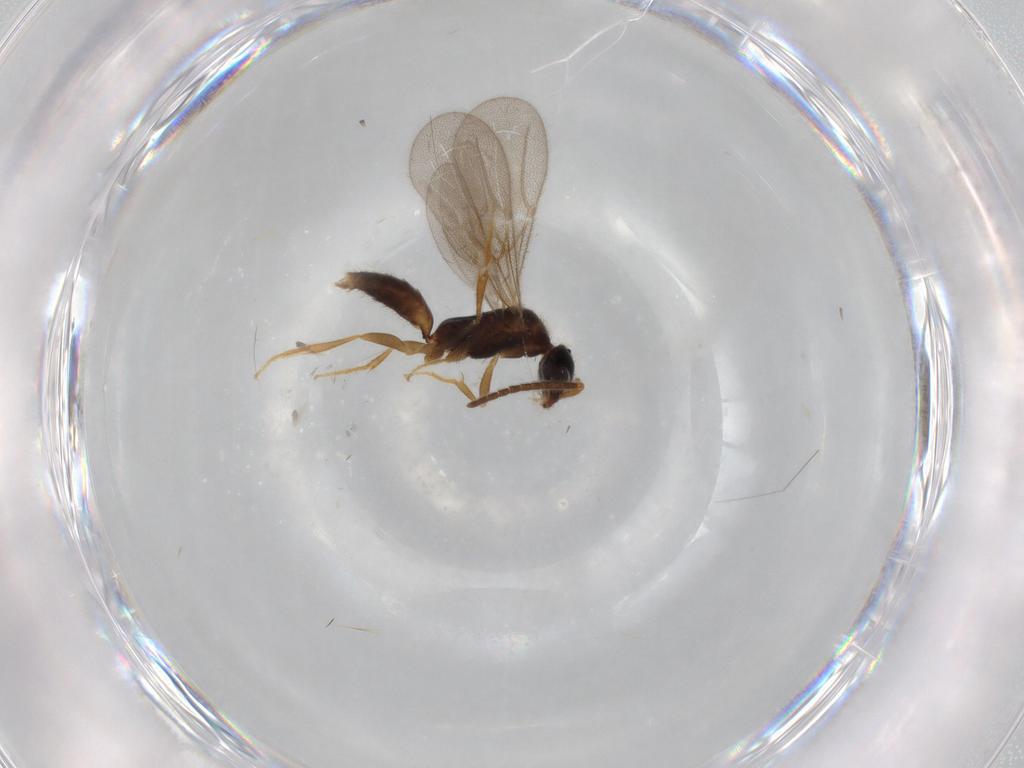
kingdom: Animalia
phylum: Arthropoda
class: Insecta
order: Hymenoptera
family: Bethylidae
